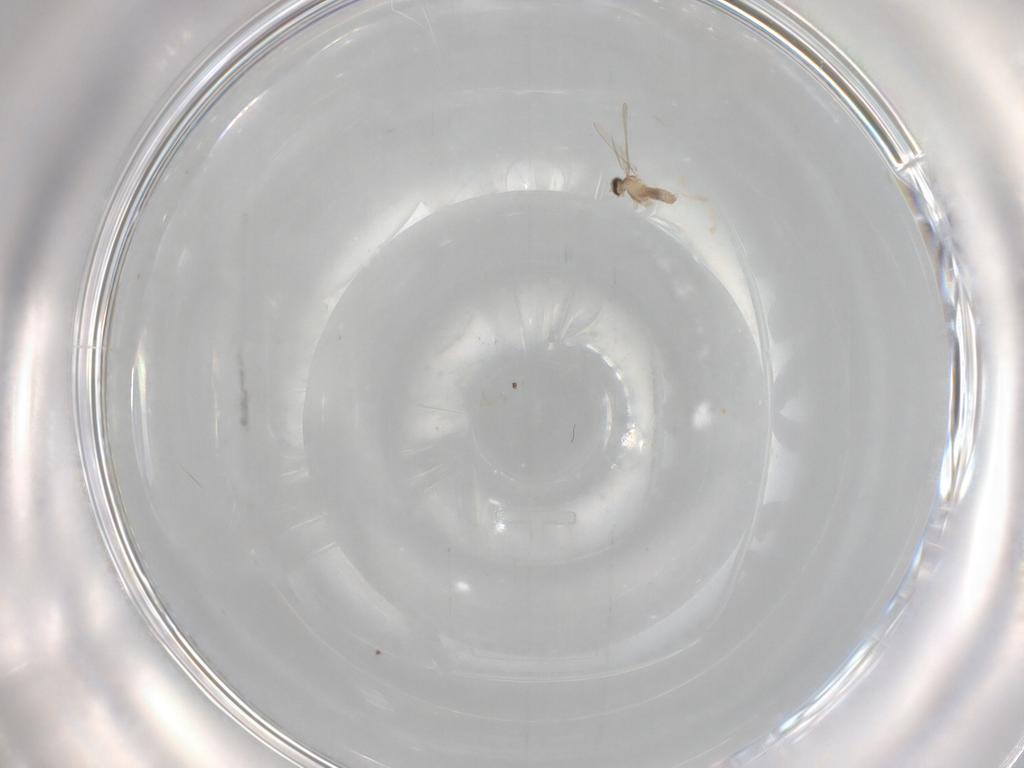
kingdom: Animalia
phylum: Arthropoda
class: Insecta
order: Diptera
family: Cecidomyiidae
